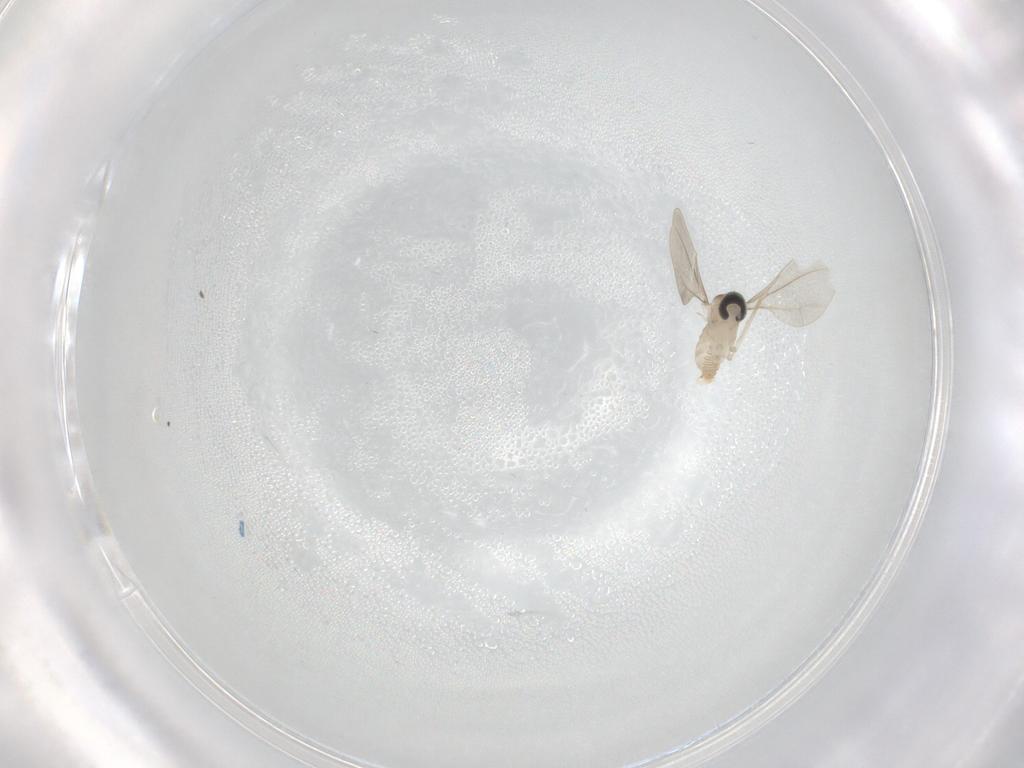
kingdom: Animalia
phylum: Arthropoda
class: Insecta
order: Diptera
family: Cecidomyiidae
